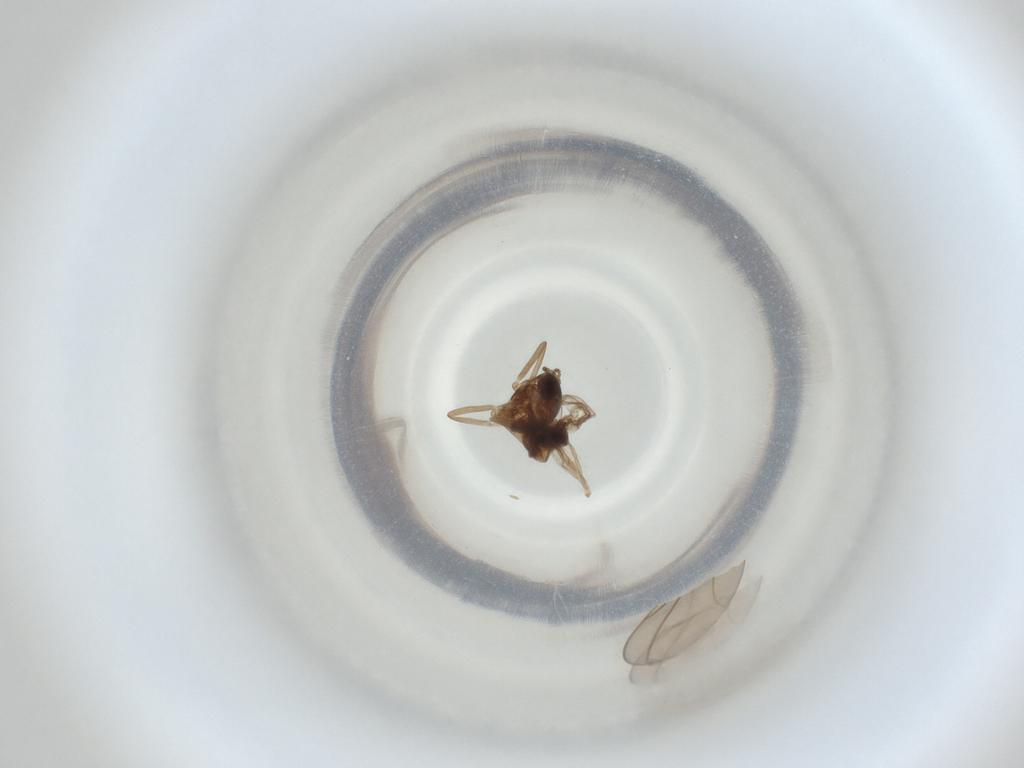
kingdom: Animalia
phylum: Arthropoda
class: Insecta
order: Diptera
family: Cecidomyiidae
